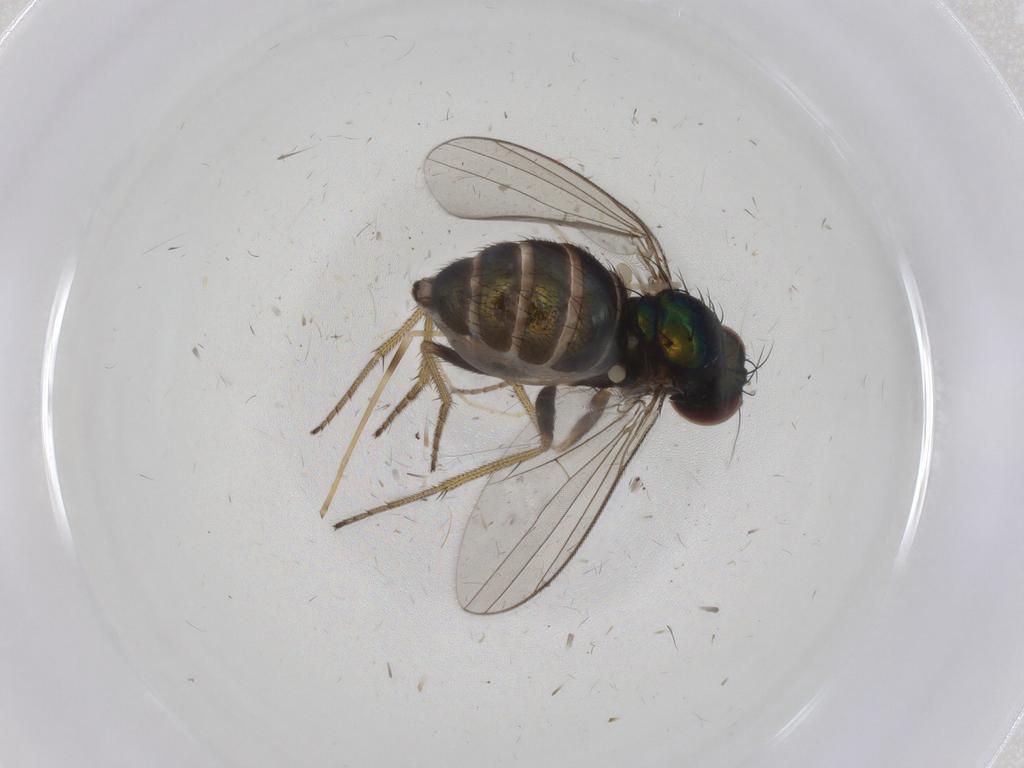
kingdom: Animalia
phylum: Arthropoda
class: Insecta
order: Diptera
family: Limoniidae
